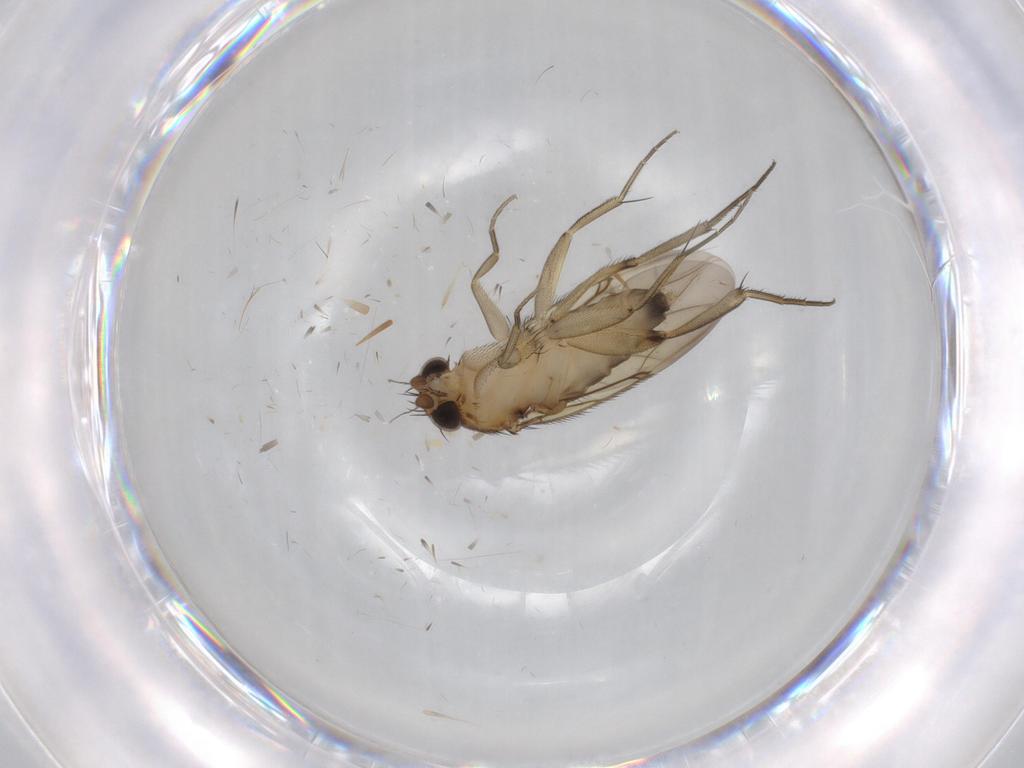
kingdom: Animalia
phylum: Arthropoda
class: Insecta
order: Diptera
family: Phoridae
